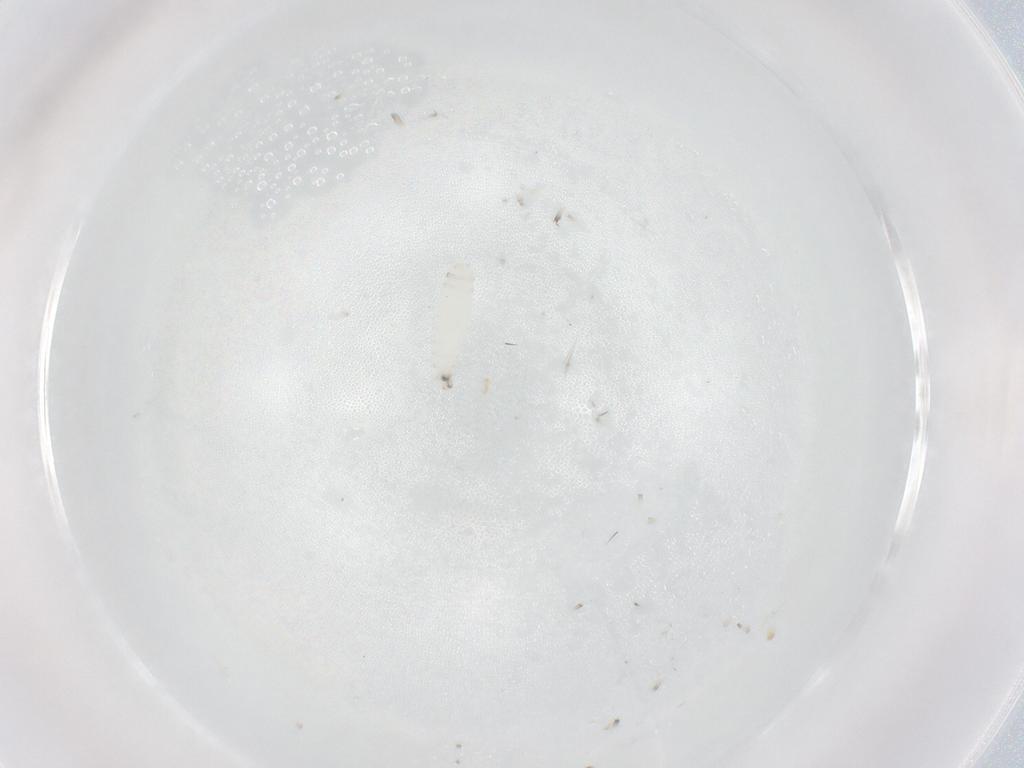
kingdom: Animalia
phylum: Arthropoda
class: Insecta
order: Diptera
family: Sarcophagidae
